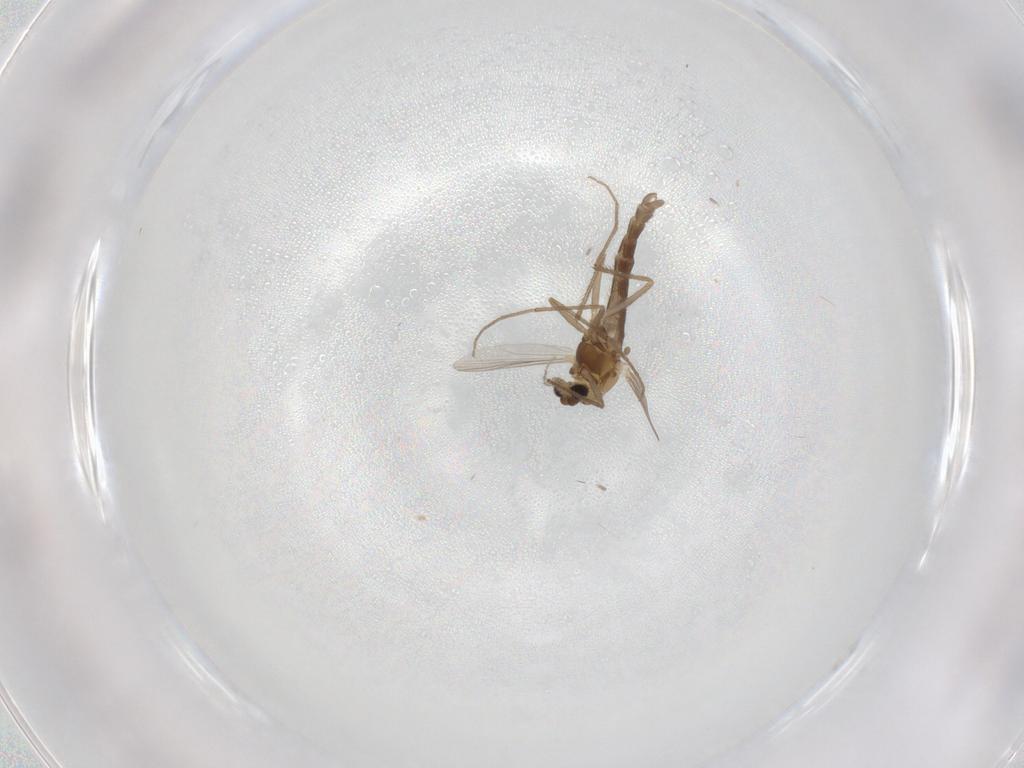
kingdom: Animalia
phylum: Arthropoda
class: Insecta
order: Diptera
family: Chironomidae
